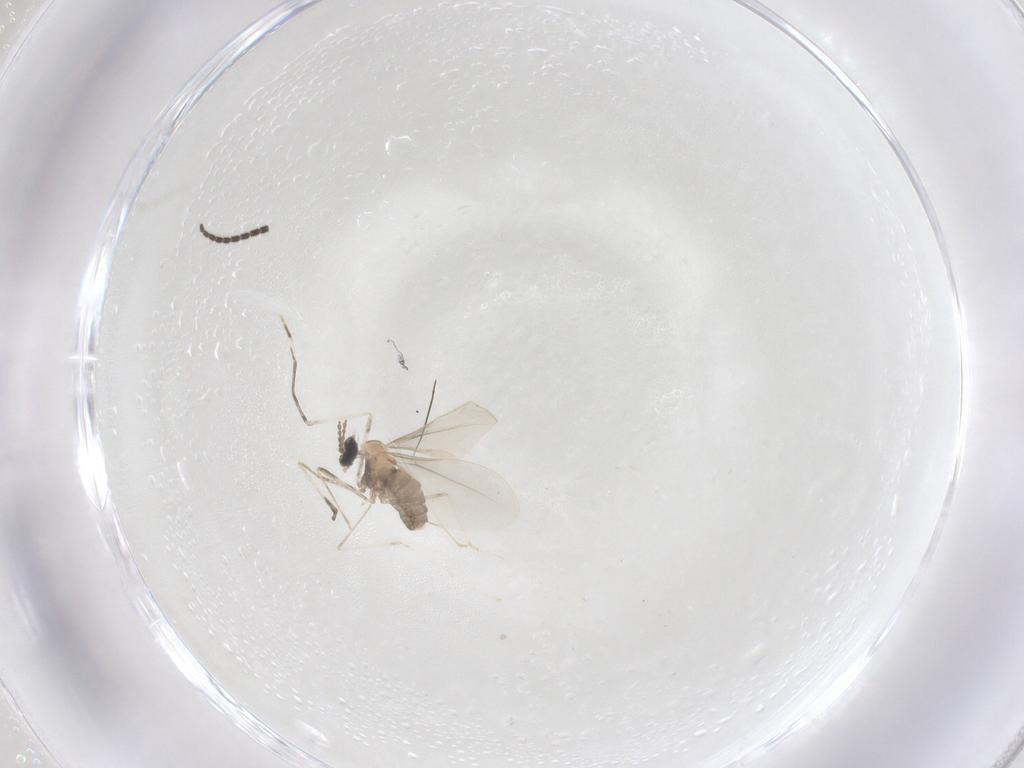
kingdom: Animalia
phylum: Arthropoda
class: Insecta
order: Diptera
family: Cecidomyiidae
